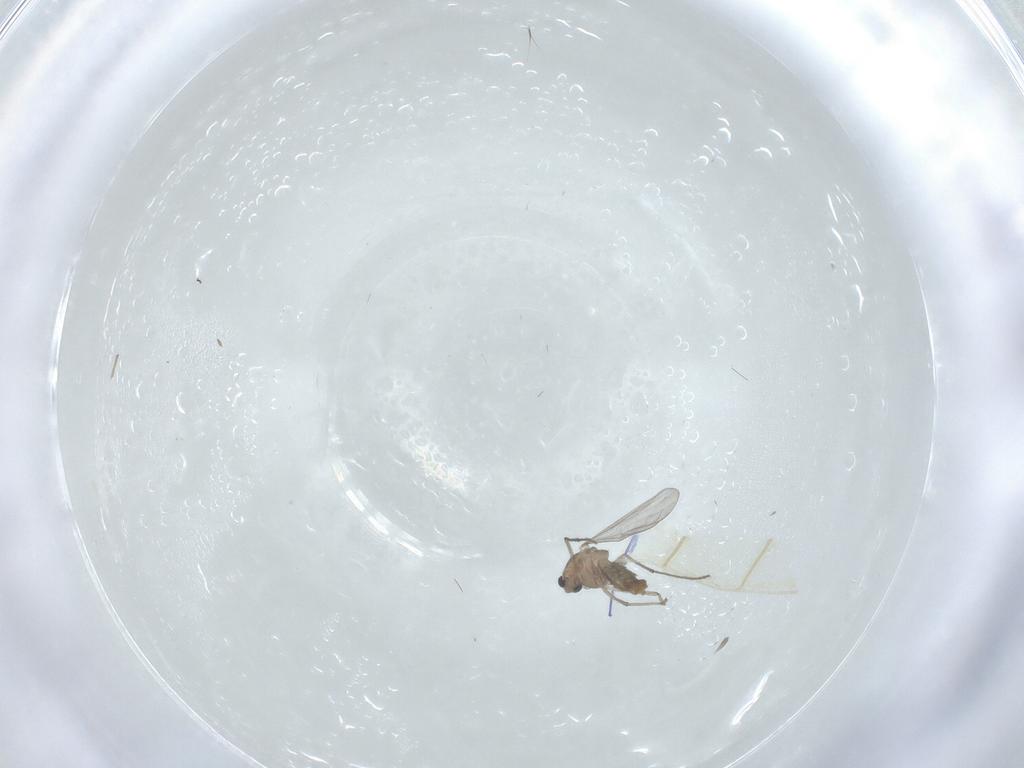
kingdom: Animalia
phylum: Arthropoda
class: Insecta
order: Diptera
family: Chironomidae
